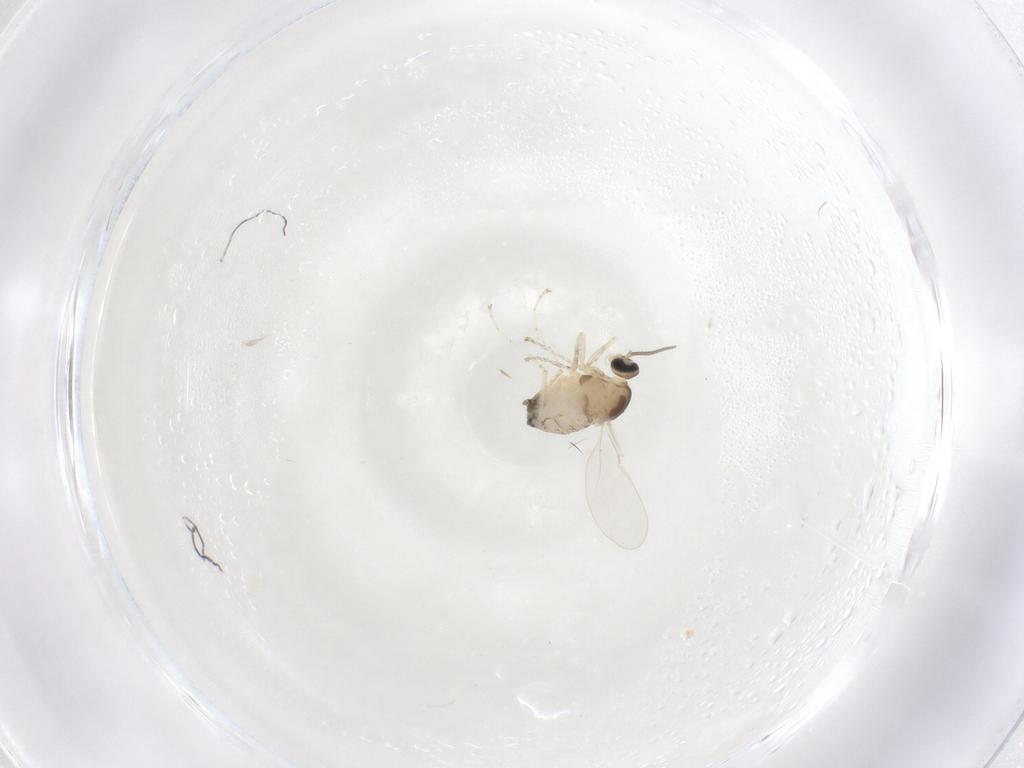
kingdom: Animalia
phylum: Arthropoda
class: Insecta
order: Diptera
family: Cecidomyiidae
